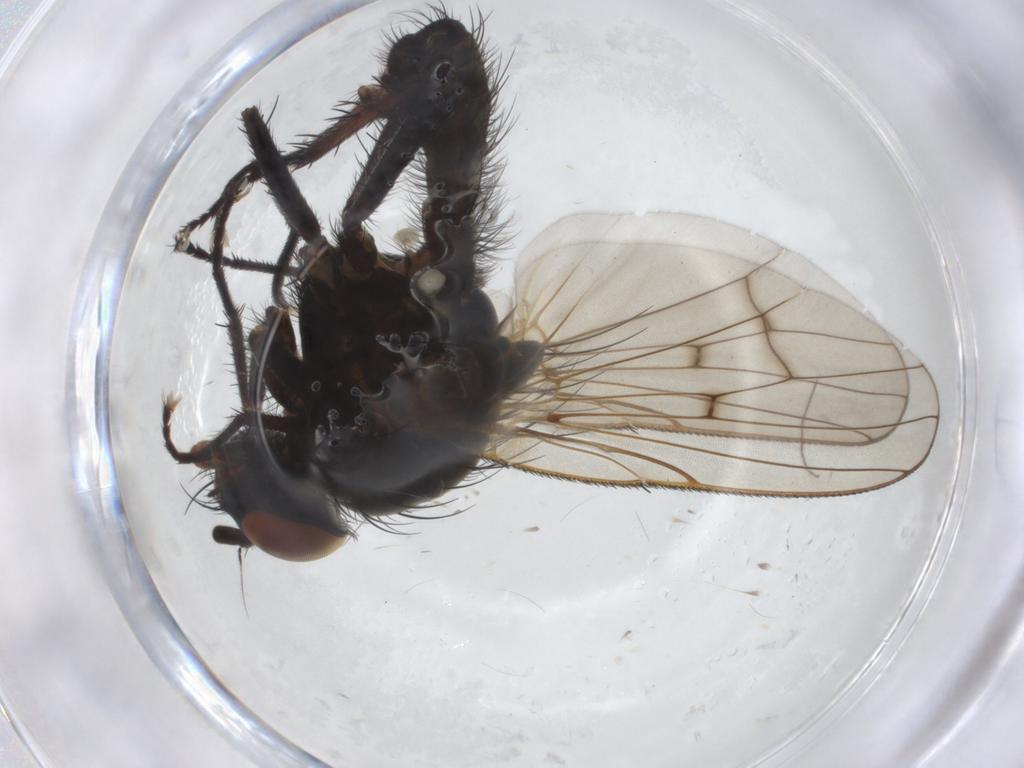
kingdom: Animalia
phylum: Arthropoda
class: Insecta
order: Diptera
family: Anthomyiidae
